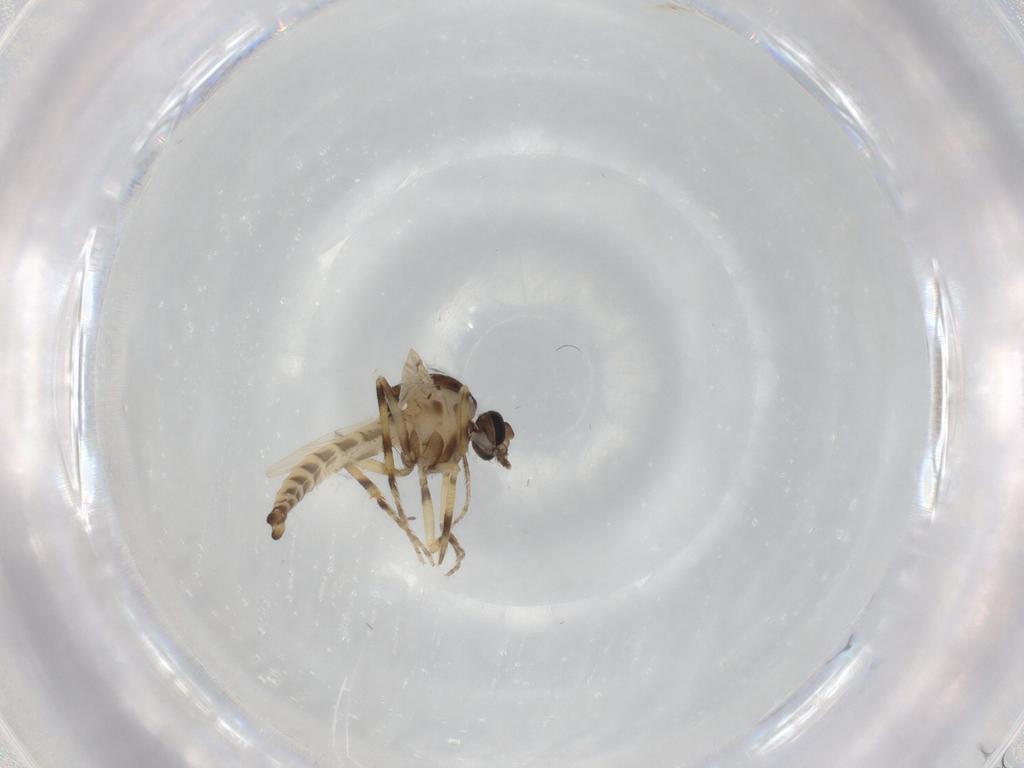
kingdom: Animalia
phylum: Arthropoda
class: Insecta
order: Diptera
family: Ceratopogonidae
